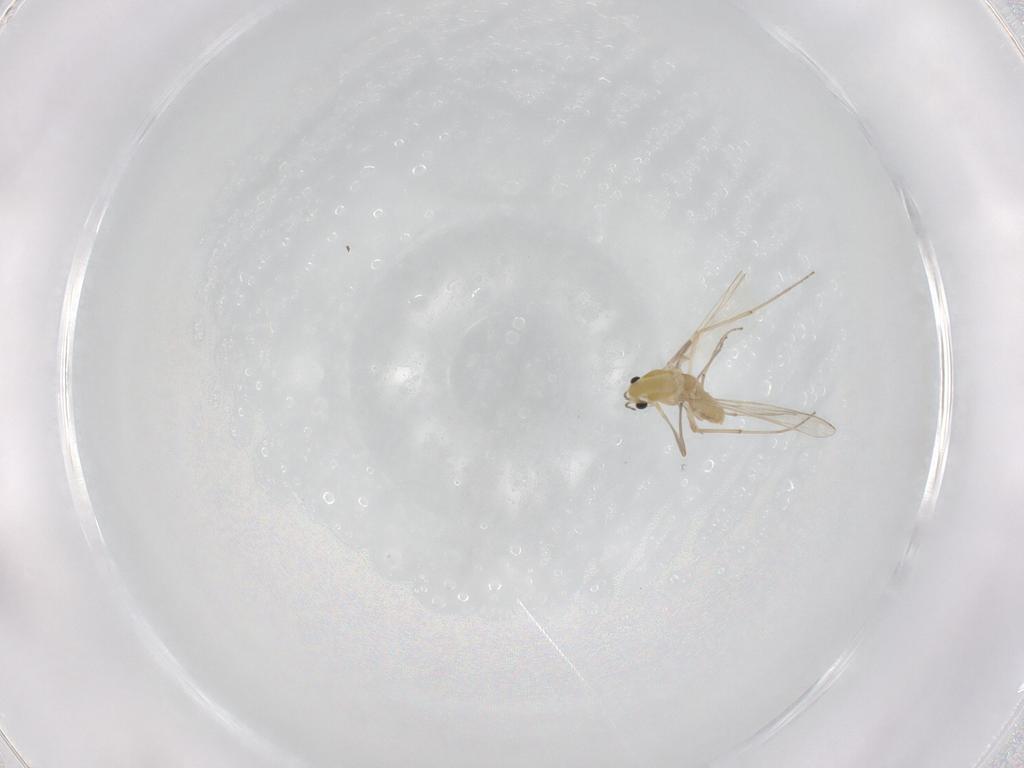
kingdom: Animalia
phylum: Arthropoda
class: Insecta
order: Diptera
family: Chironomidae
